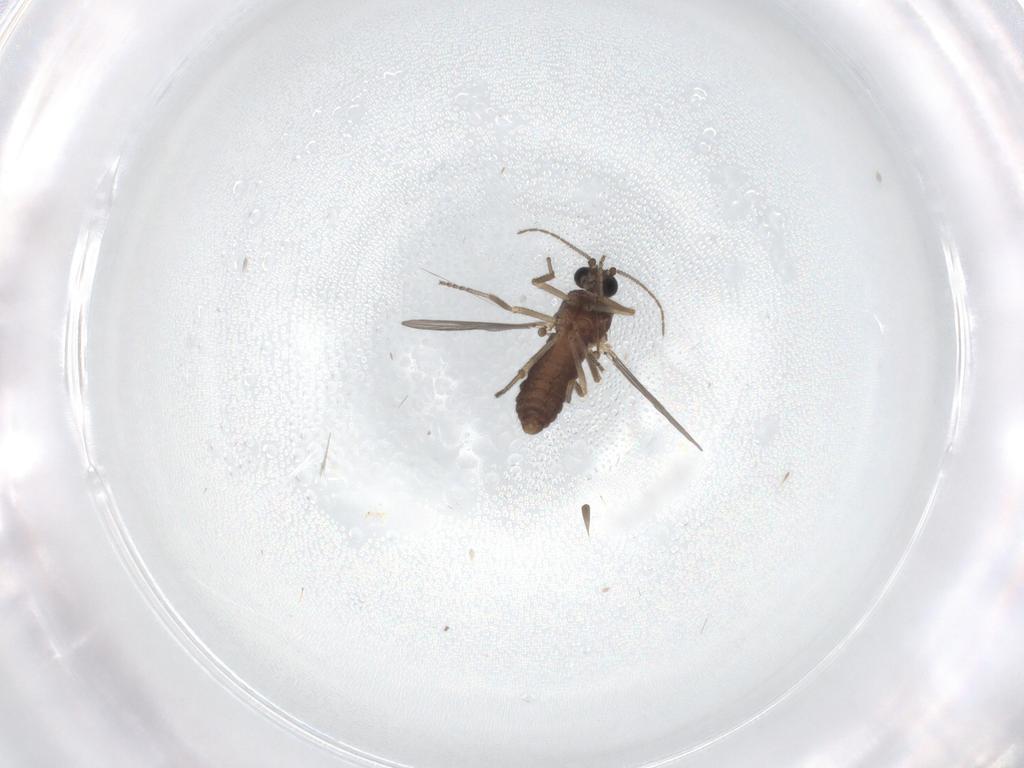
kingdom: Animalia
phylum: Arthropoda
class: Insecta
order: Diptera
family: Ceratopogonidae
